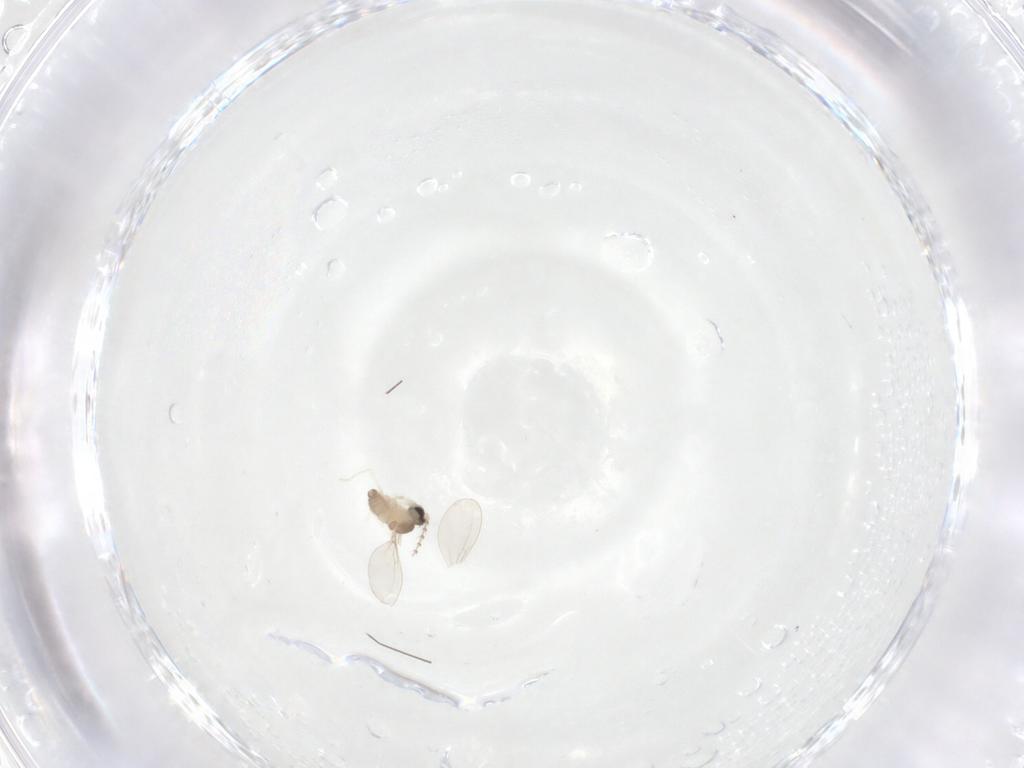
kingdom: Animalia
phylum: Arthropoda
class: Insecta
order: Diptera
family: Cecidomyiidae
